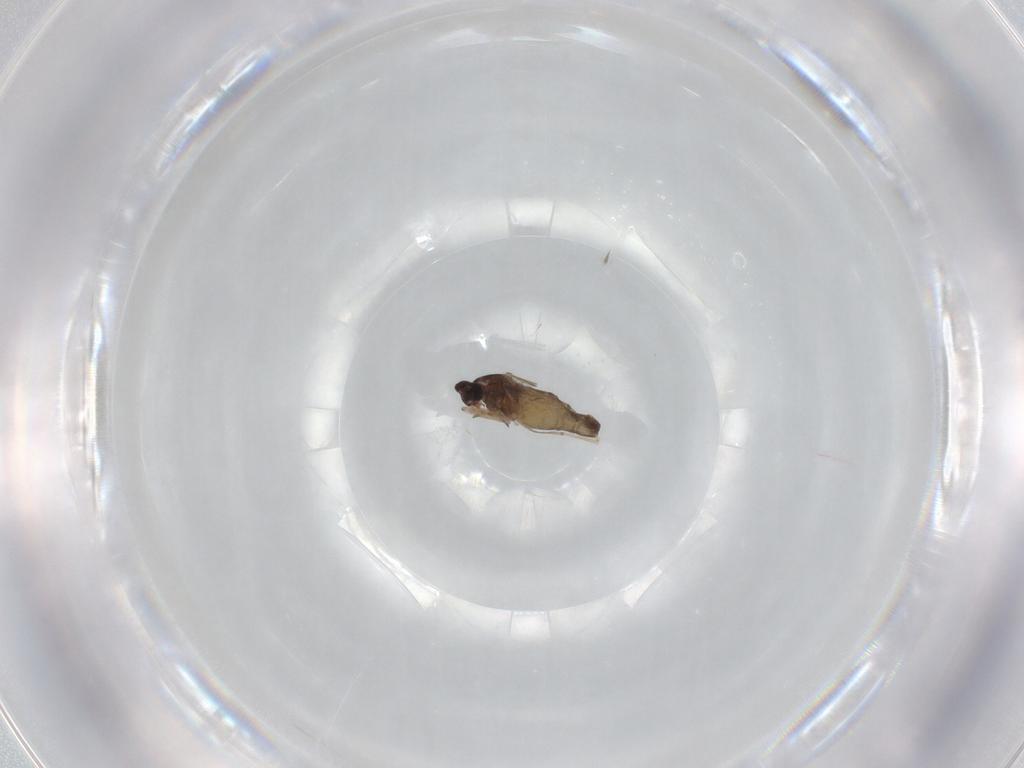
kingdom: Animalia
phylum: Arthropoda
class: Insecta
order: Diptera
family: Cecidomyiidae
